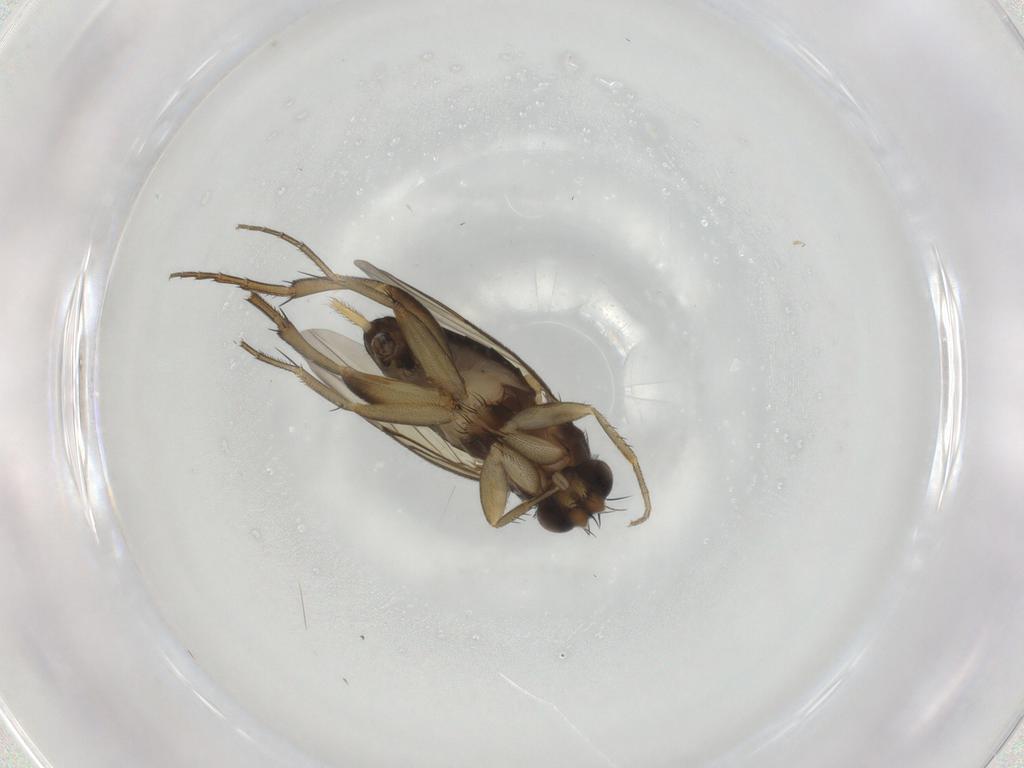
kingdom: Animalia
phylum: Arthropoda
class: Insecta
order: Diptera
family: Phoridae
